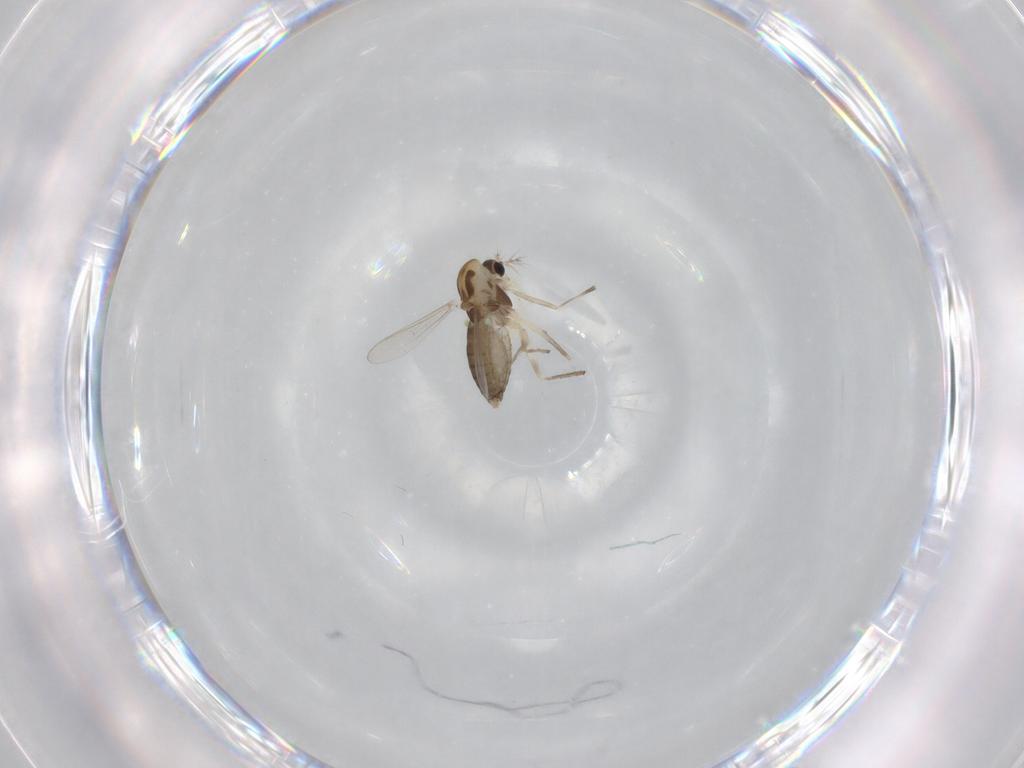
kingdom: Animalia
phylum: Arthropoda
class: Insecta
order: Diptera
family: Chironomidae
